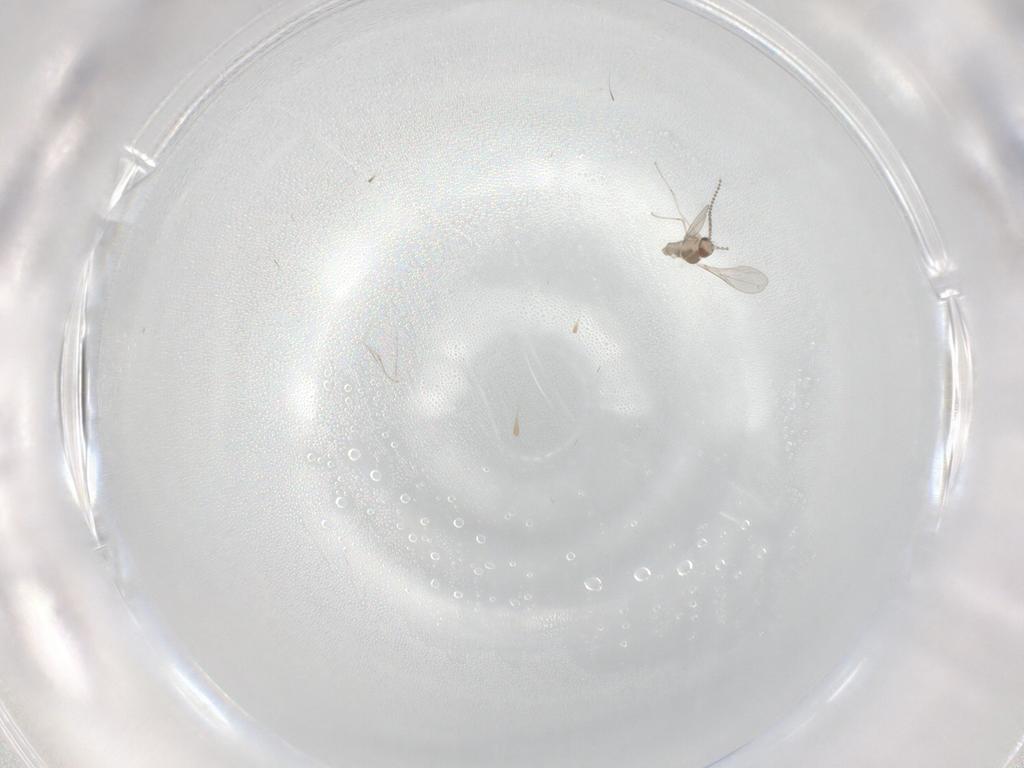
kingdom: Animalia
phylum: Arthropoda
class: Insecta
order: Diptera
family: Cecidomyiidae
